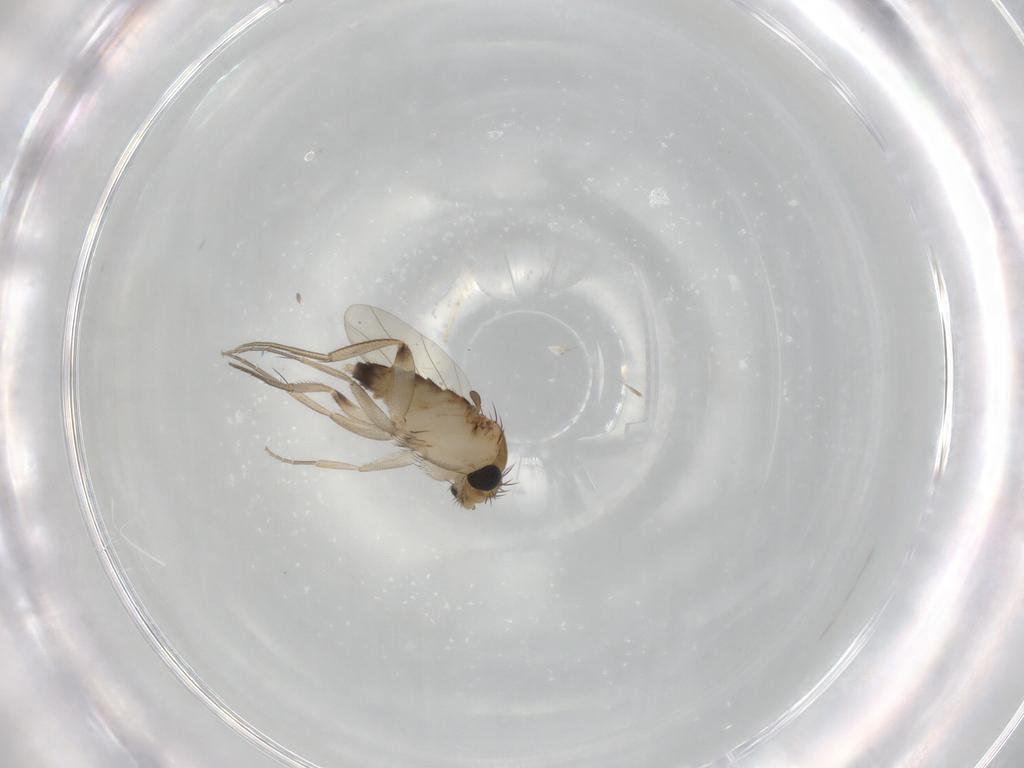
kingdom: Animalia
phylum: Arthropoda
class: Insecta
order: Diptera
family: Phoridae
